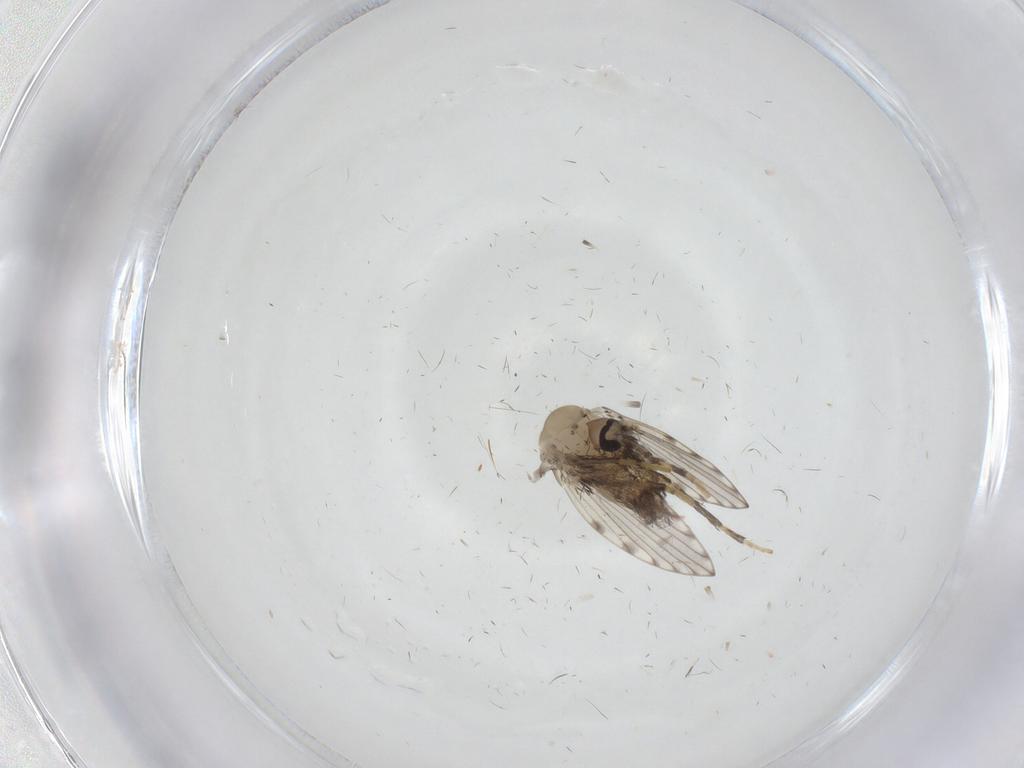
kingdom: Animalia
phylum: Arthropoda
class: Insecta
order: Diptera
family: Psychodidae
